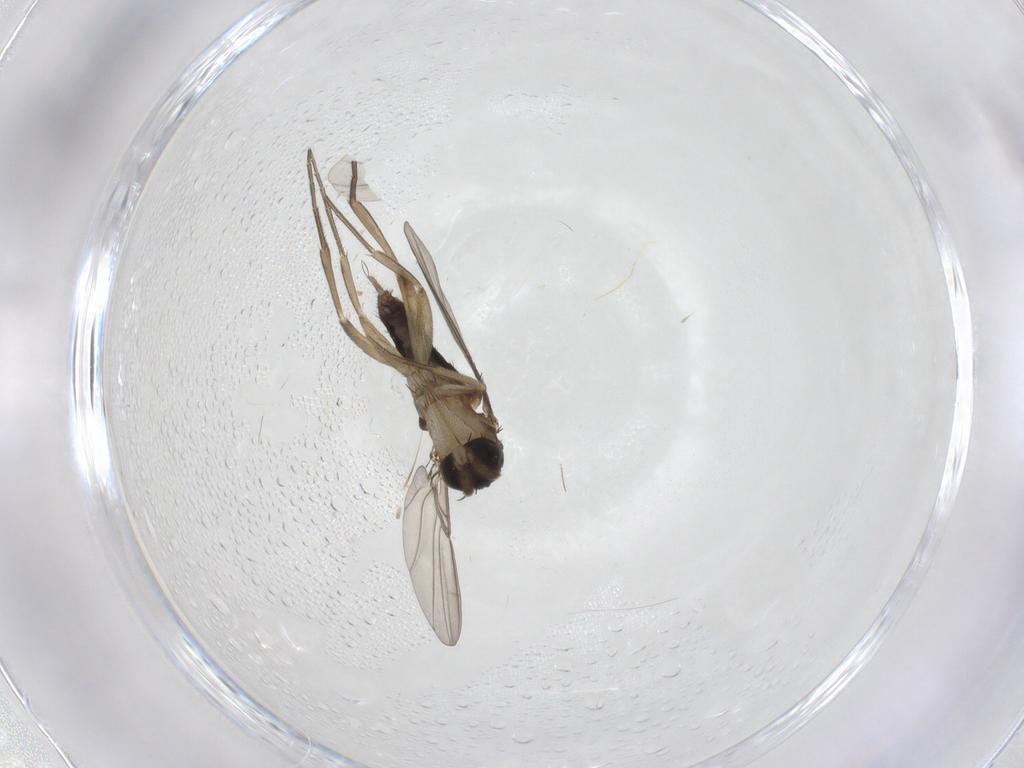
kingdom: Animalia
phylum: Arthropoda
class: Insecta
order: Diptera
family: Phoridae
